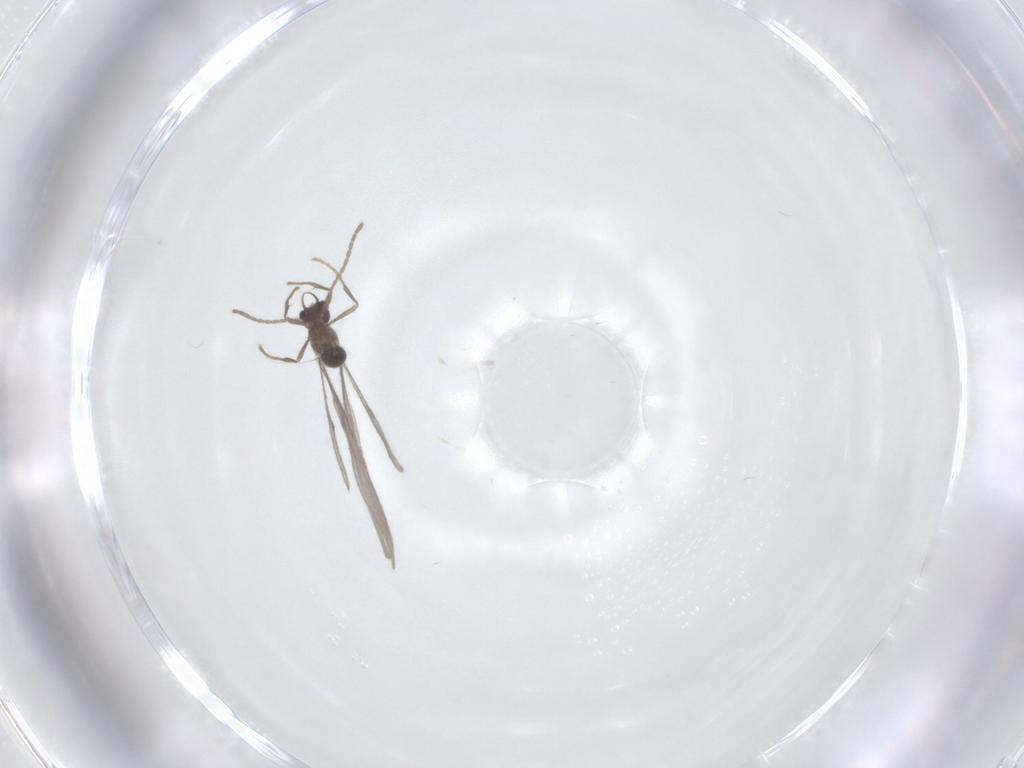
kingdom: Animalia
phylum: Arthropoda
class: Insecta
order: Hymenoptera
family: Formicidae
